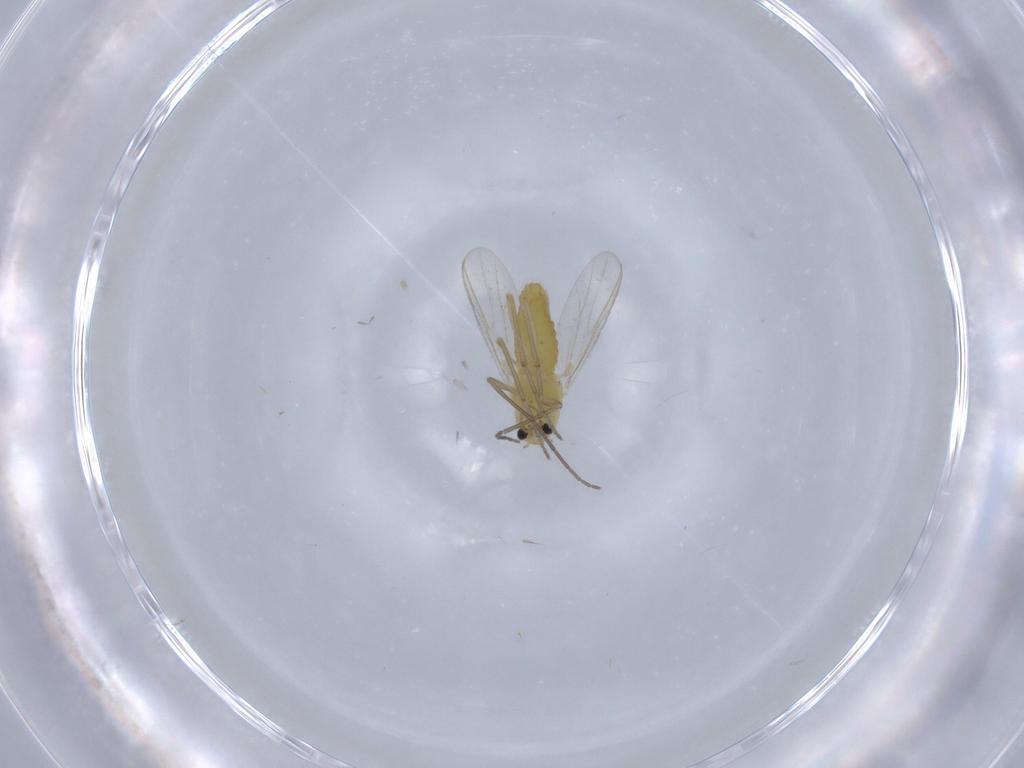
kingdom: Animalia
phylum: Arthropoda
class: Insecta
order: Diptera
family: Chironomidae
